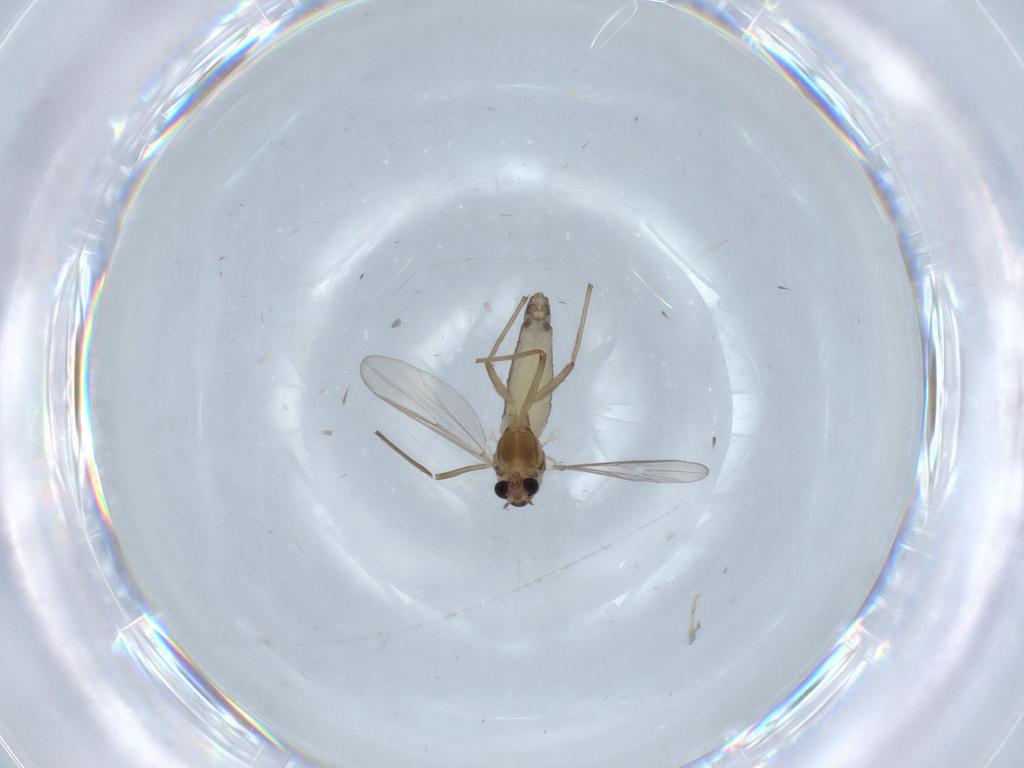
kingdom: Animalia
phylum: Arthropoda
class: Insecta
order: Diptera
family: Chironomidae
